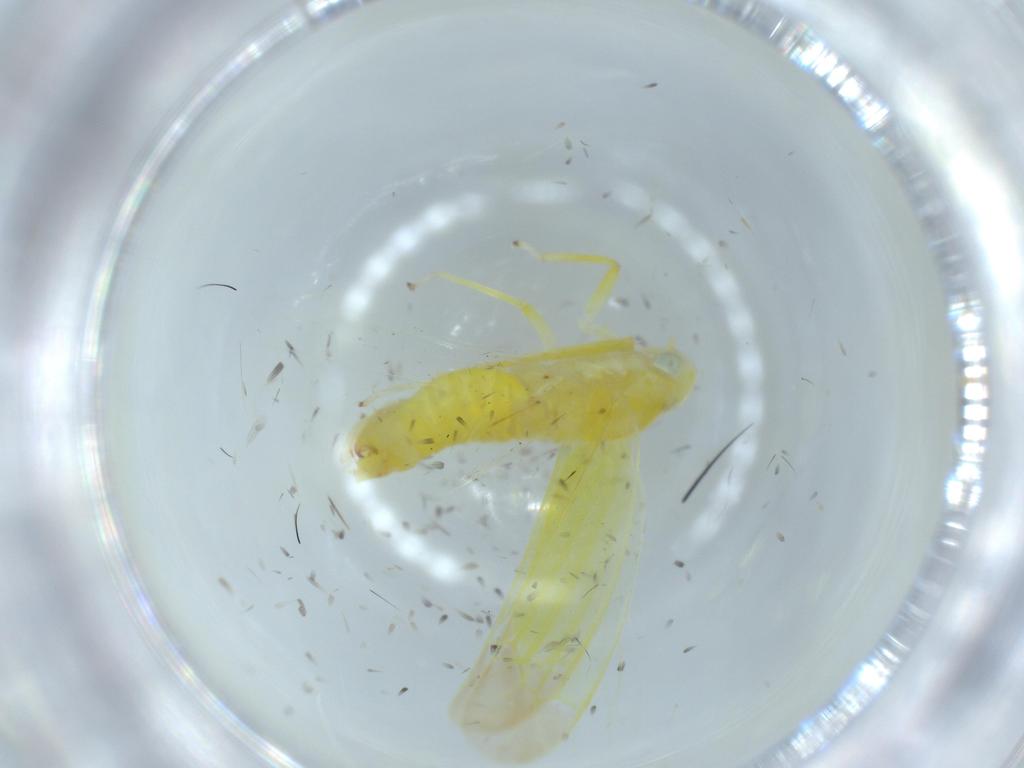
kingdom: Animalia
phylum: Arthropoda
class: Insecta
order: Hemiptera
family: Cicadellidae
